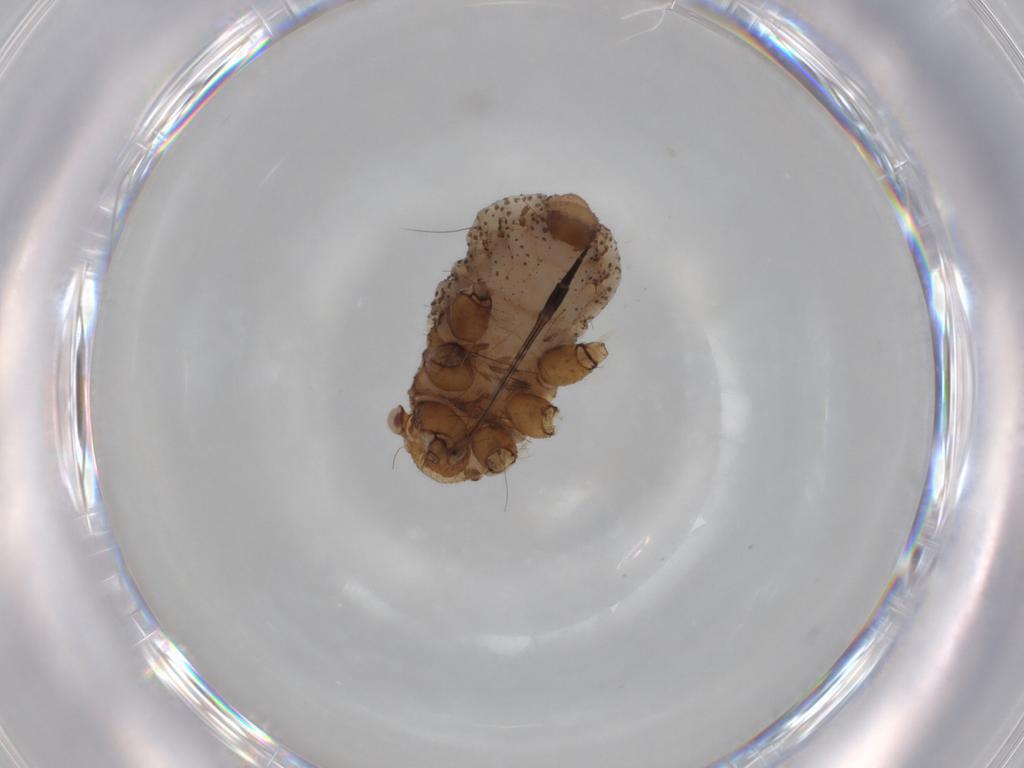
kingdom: Animalia
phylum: Arthropoda
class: Insecta
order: Hemiptera
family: Aphididae
